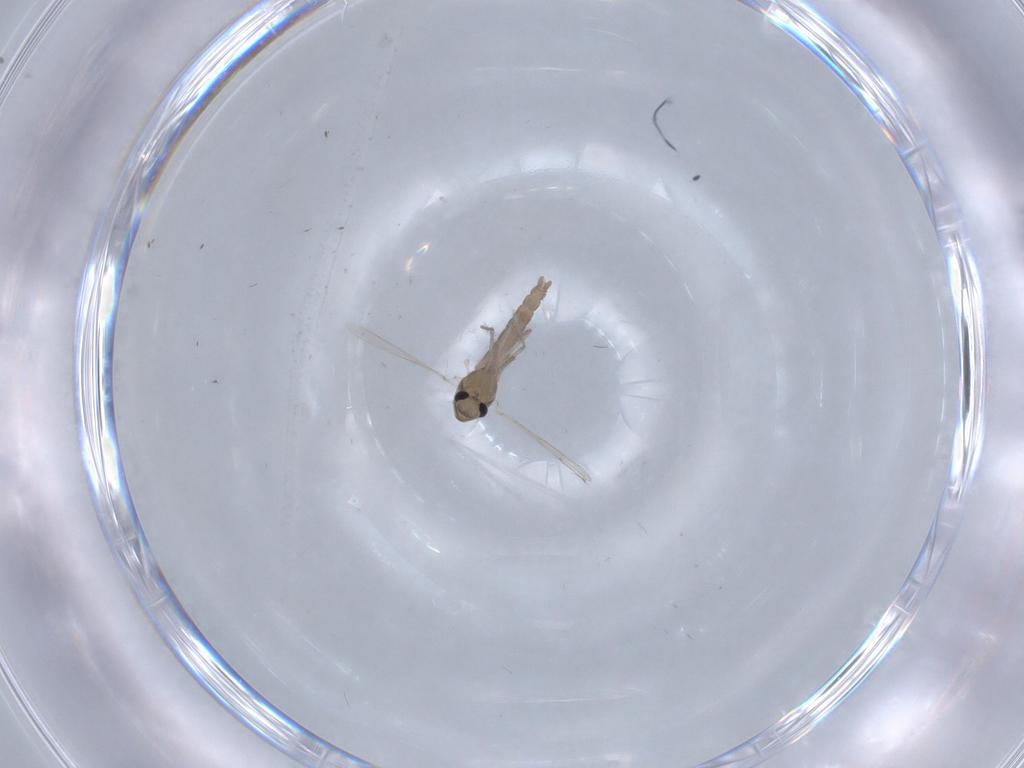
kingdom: Animalia
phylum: Arthropoda
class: Insecta
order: Diptera
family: Chironomidae
